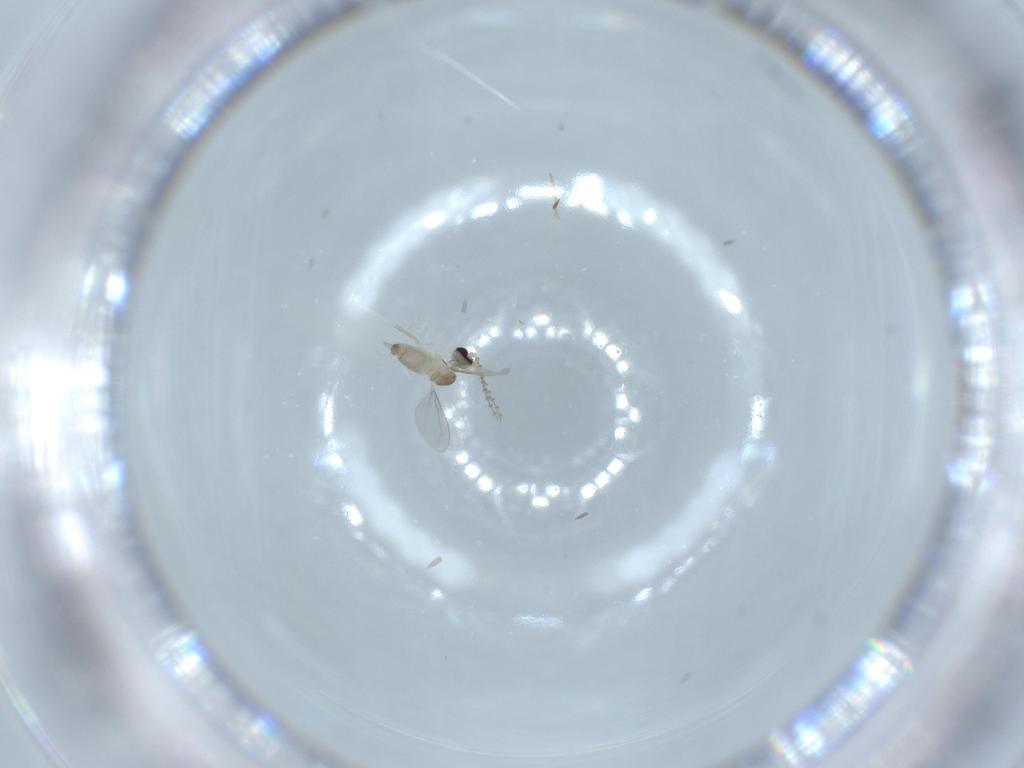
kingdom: Animalia
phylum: Arthropoda
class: Insecta
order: Diptera
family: Cecidomyiidae
